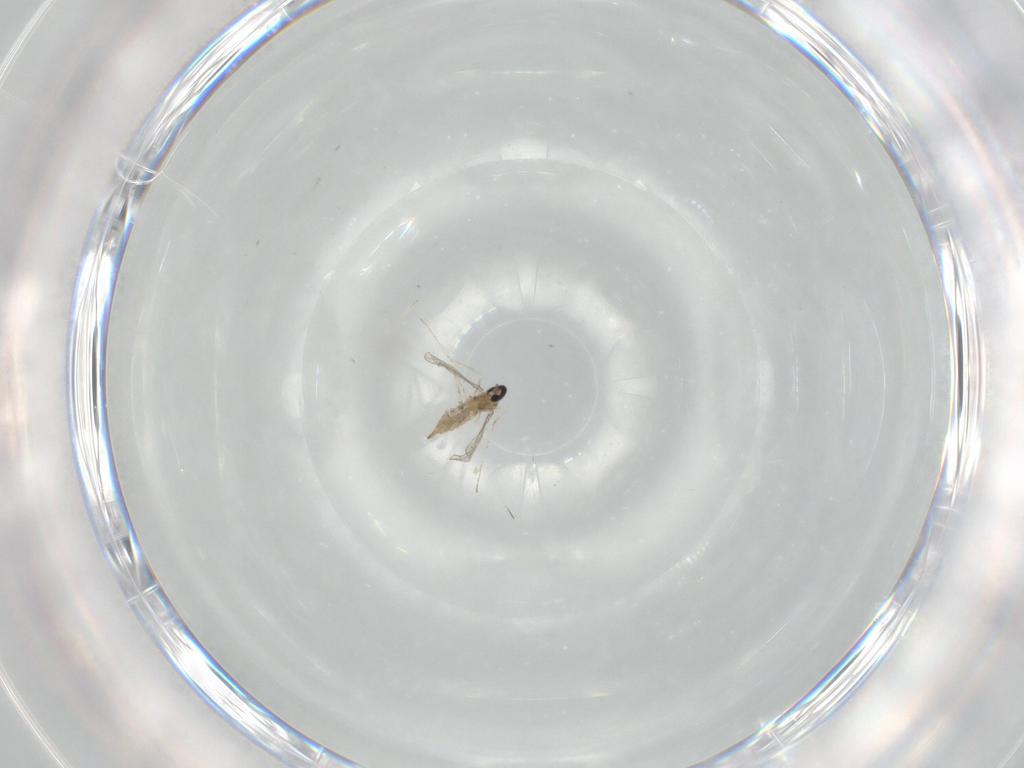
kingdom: Animalia
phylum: Arthropoda
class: Insecta
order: Diptera
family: Cecidomyiidae
